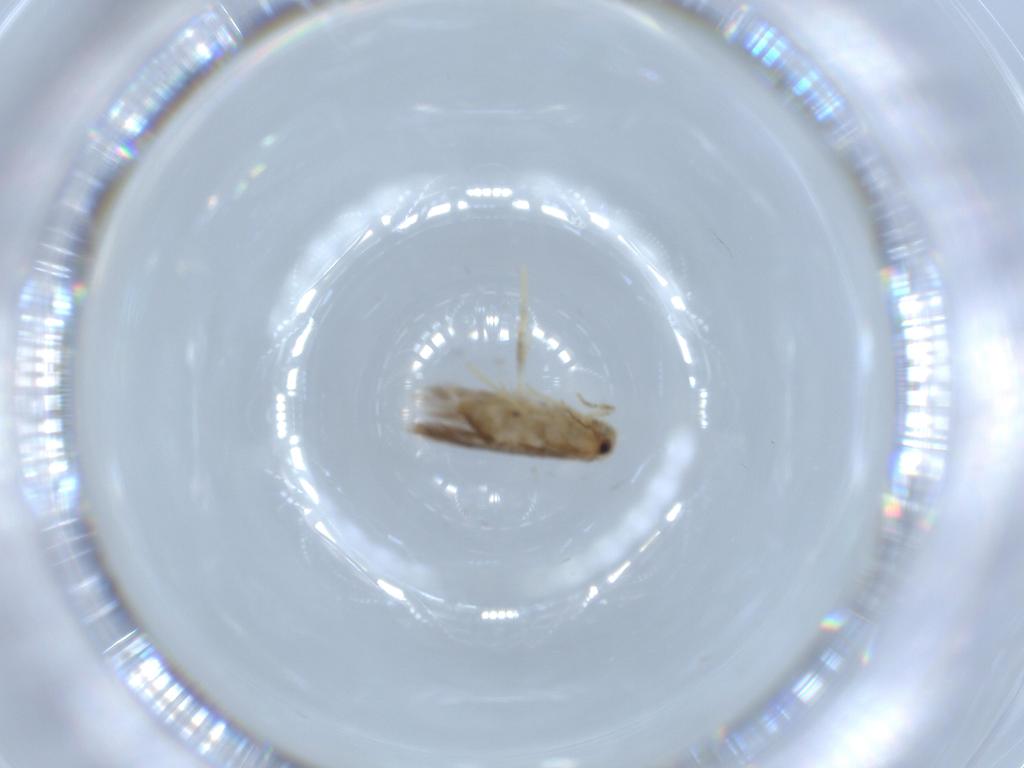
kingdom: Animalia
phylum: Arthropoda
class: Insecta
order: Lepidoptera
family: Nepticulidae
